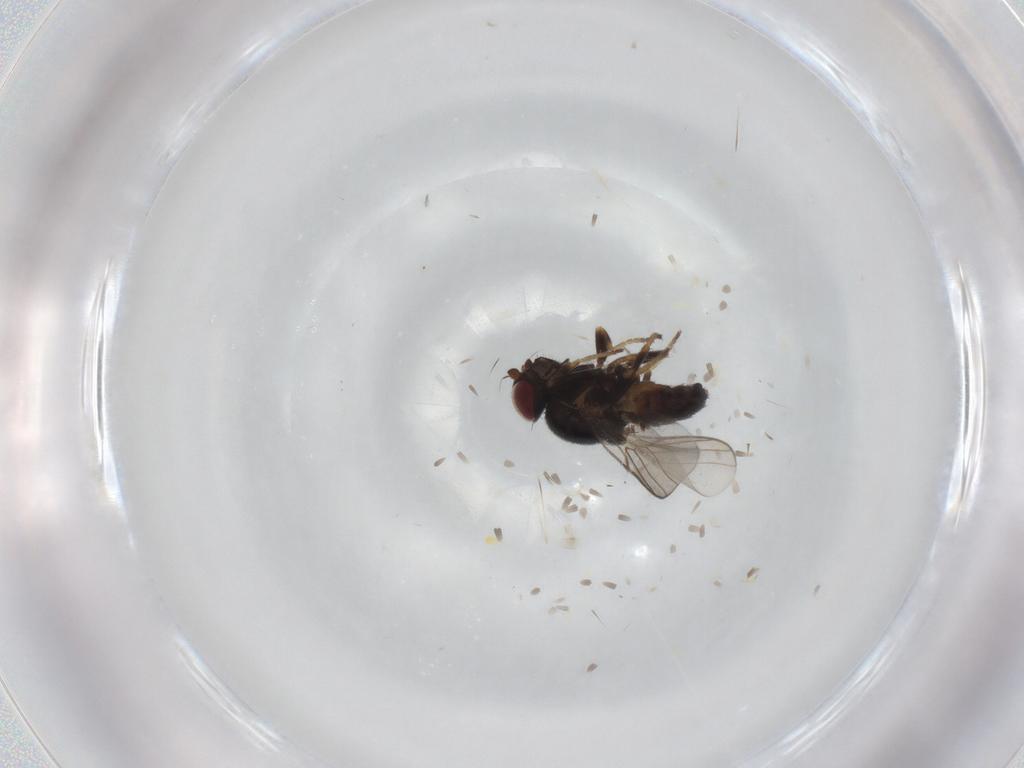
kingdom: Animalia
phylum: Arthropoda
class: Insecta
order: Diptera
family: Chloropidae
